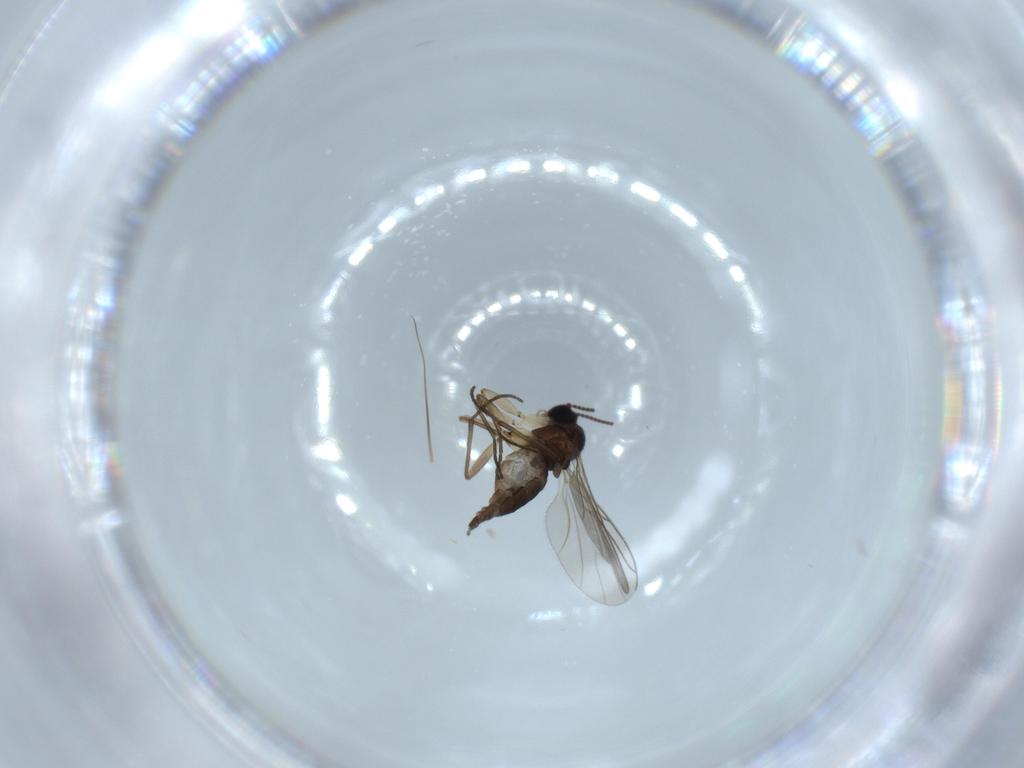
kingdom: Animalia
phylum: Arthropoda
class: Insecta
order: Diptera
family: Sciaridae
